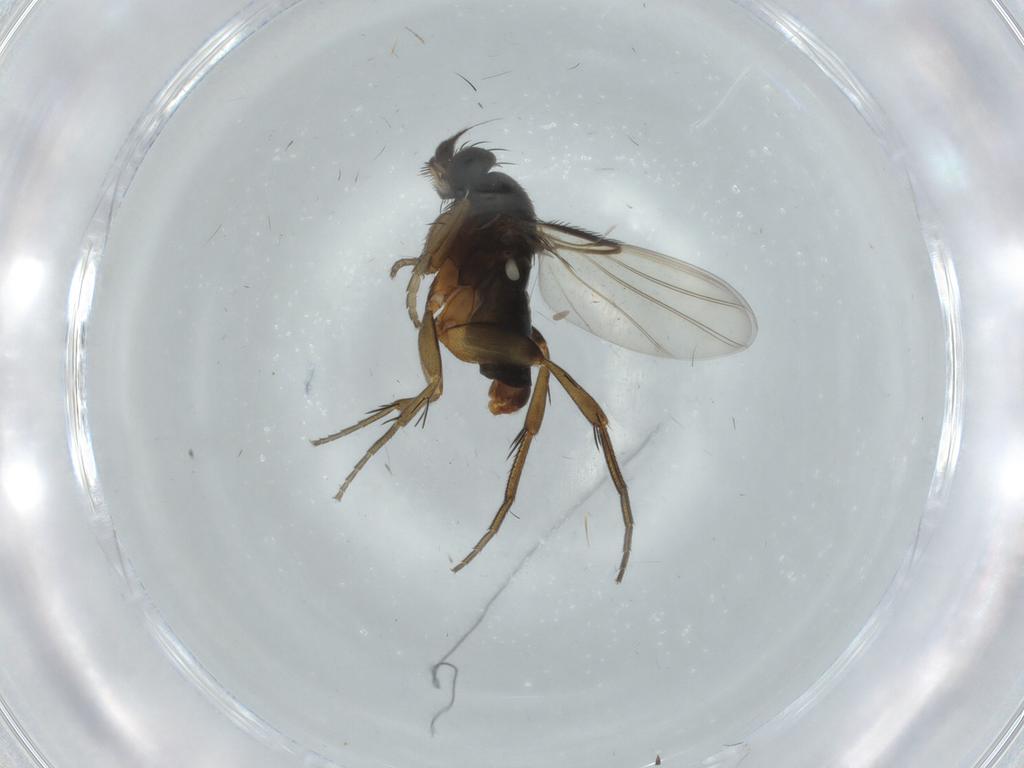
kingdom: Animalia
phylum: Arthropoda
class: Insecta
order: Diptera
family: Phoridae
